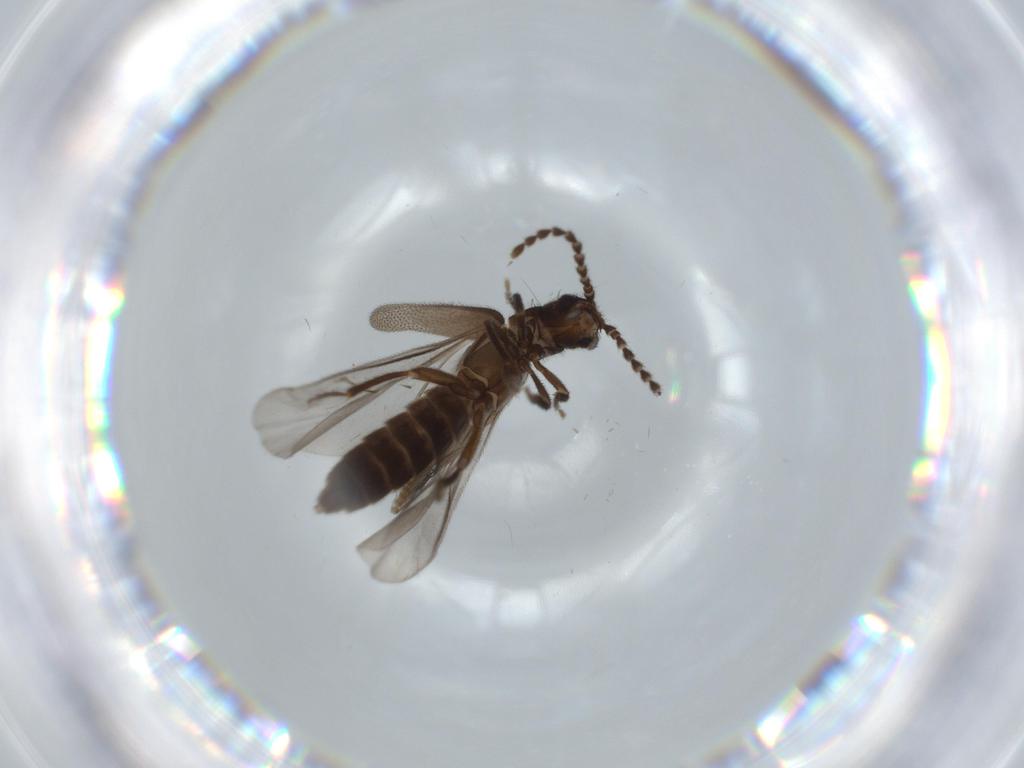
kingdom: Animalia
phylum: Arthropoda
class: Insecta
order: Coleoptera
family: Omethidae
